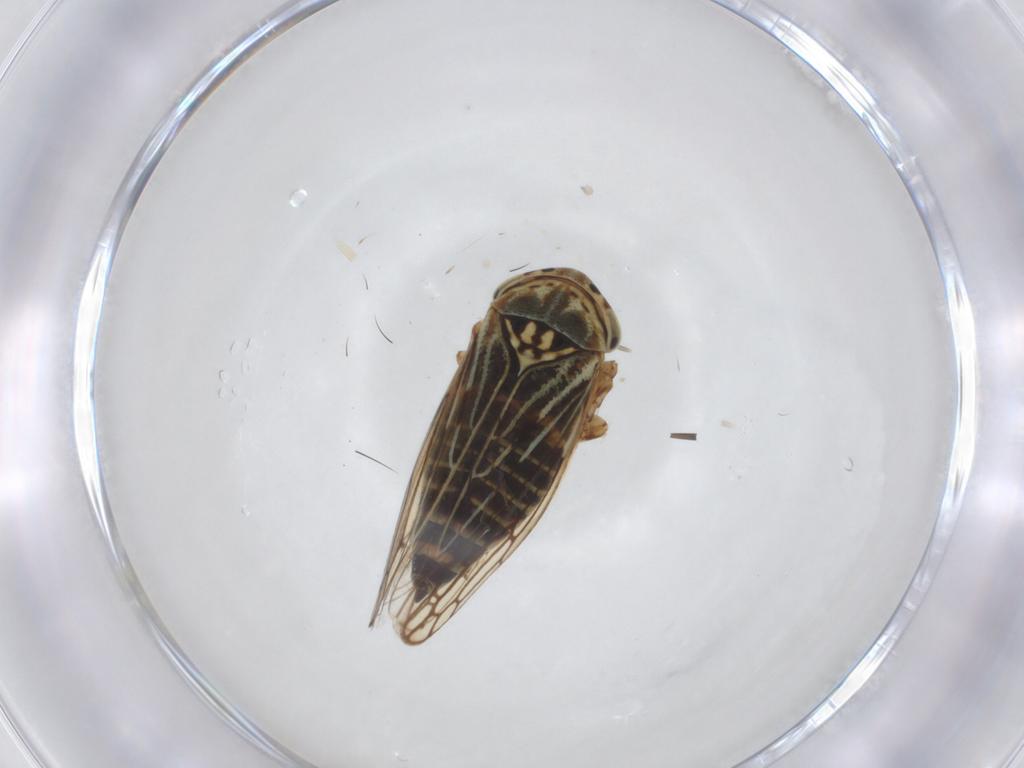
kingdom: Animalia
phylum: Arthropoda
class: Insecta
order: Hemiptera
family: Cicadellidae
